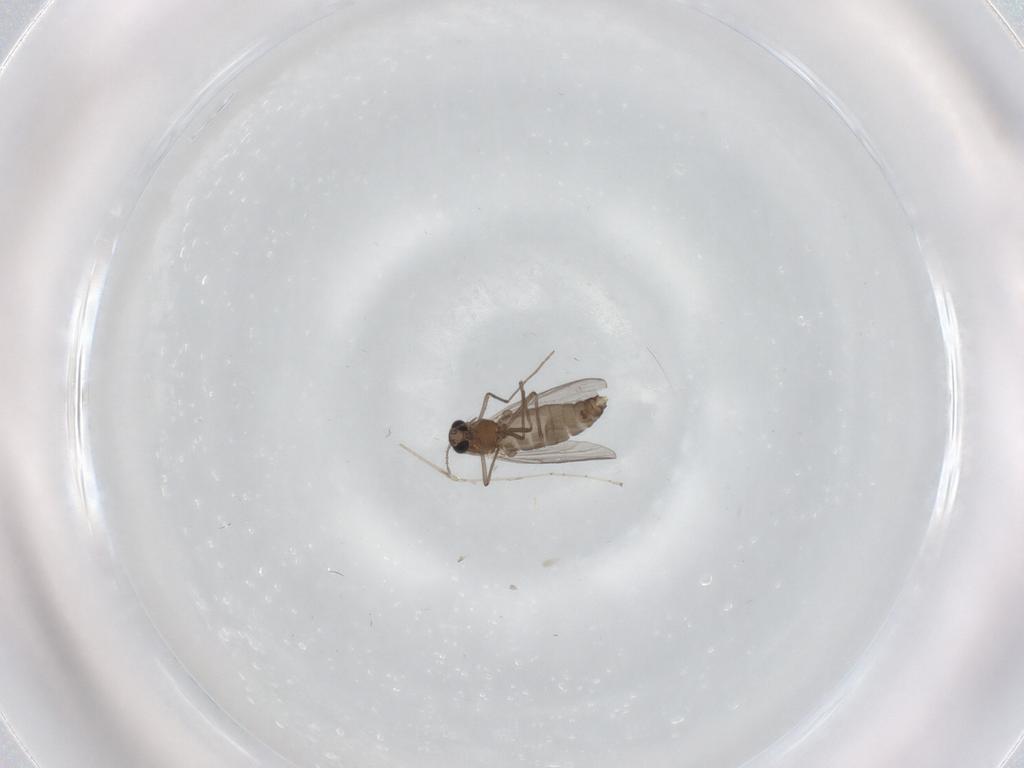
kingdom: Animalia
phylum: Arthropoda
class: Insecta
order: Diptera
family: Chironomidae
